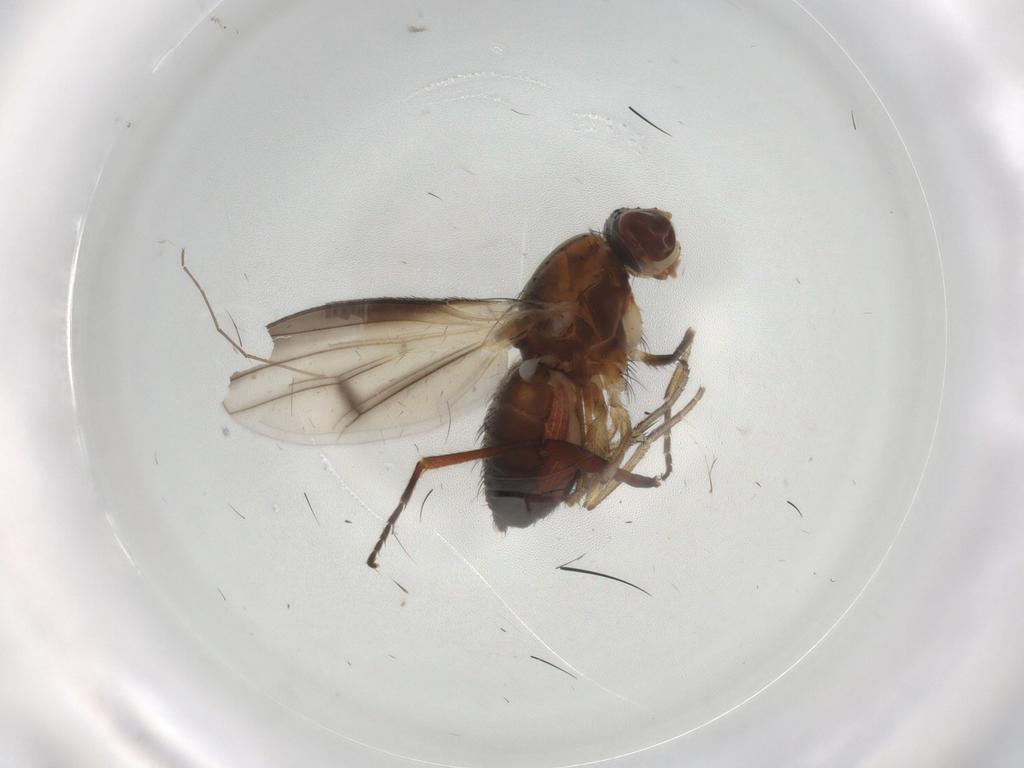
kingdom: Animalia
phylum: Arthropoda
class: Insecta
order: Diptera
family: Heleomyzidae
